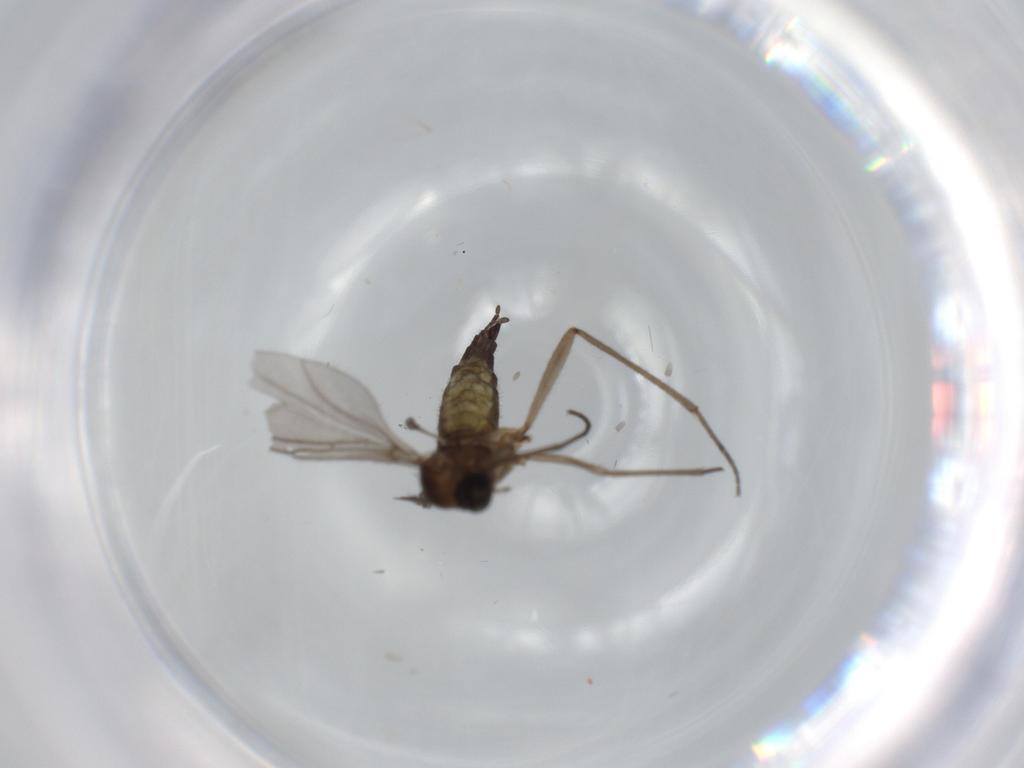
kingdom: Animalia
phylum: Arthropoda
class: Insecta
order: Diptera
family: Sciaridae
